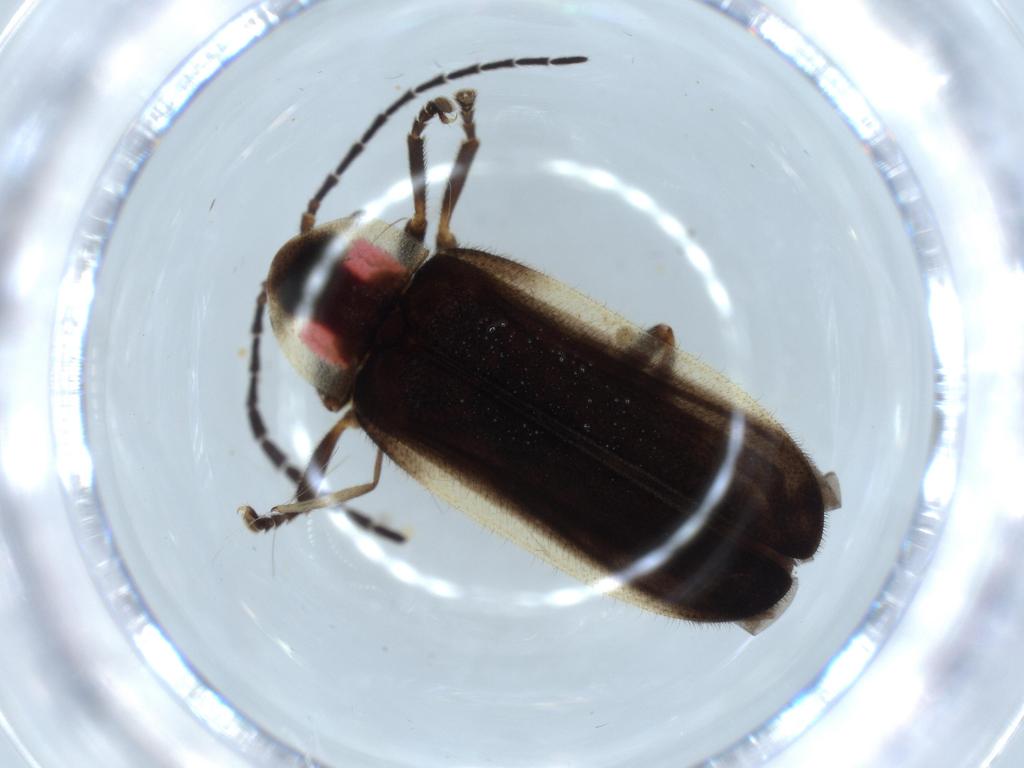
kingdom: Animalia
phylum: Arthropoda
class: Insecta
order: Coleoptera
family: Lampyridae
